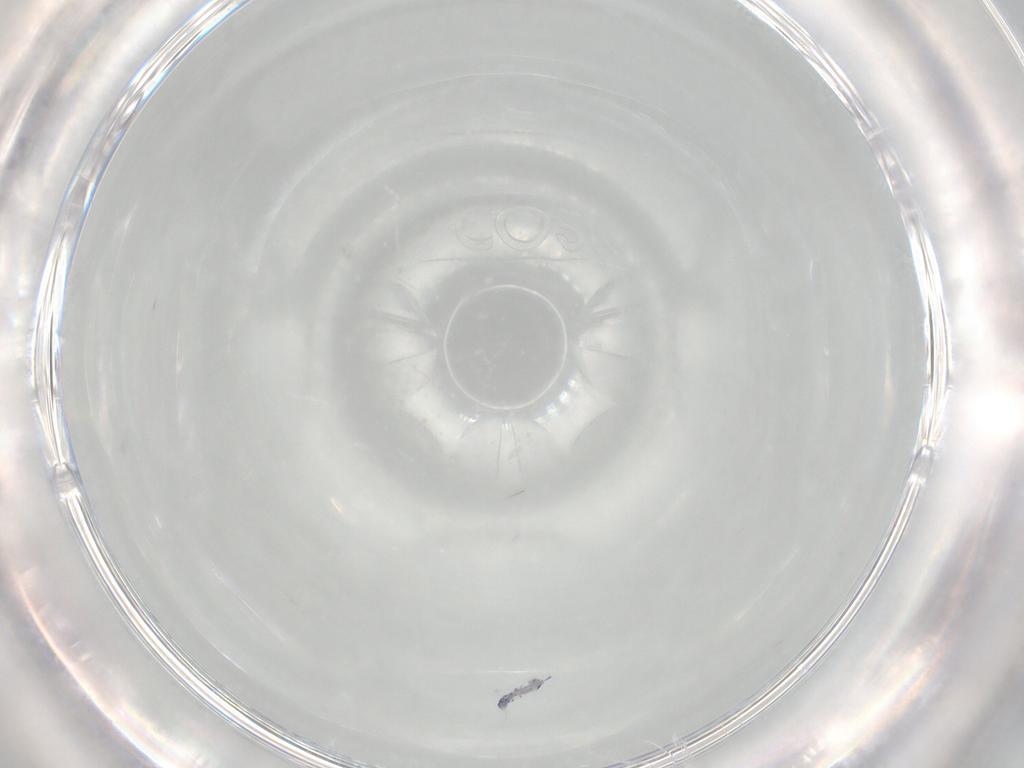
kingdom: Animalia
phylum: Arthropoda
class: Collembola
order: Entomobryomorpha
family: Entomobryidae
